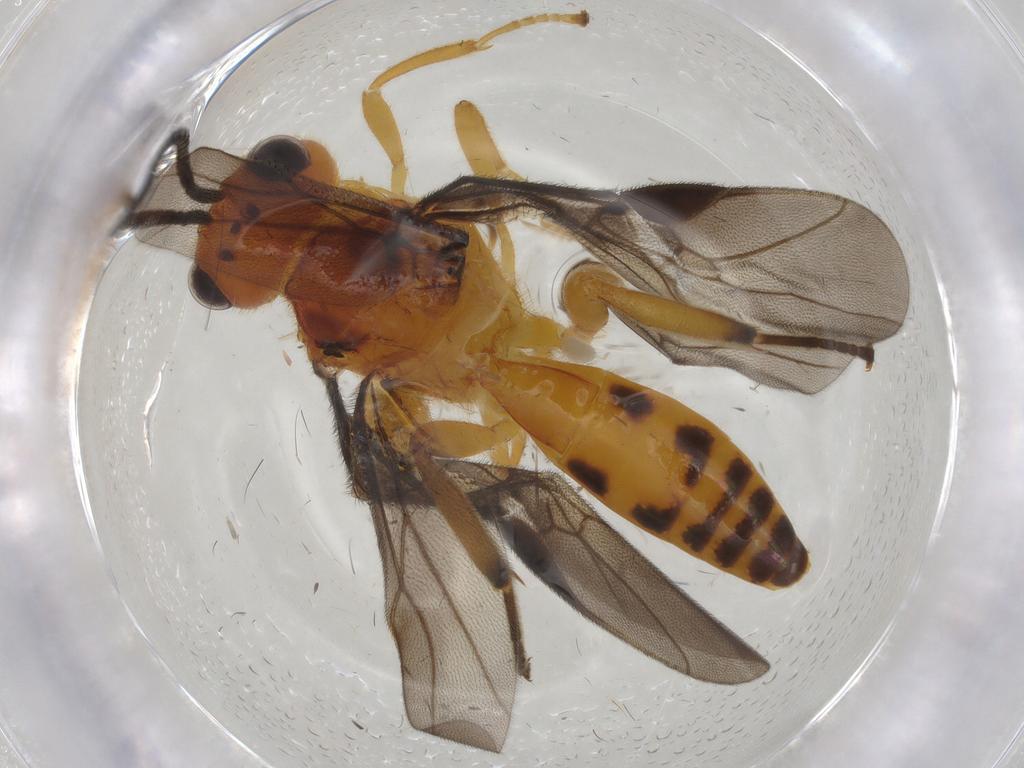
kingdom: Animalia
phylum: Arthropoda
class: Insecta
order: Hymenoptera
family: Braconidae
